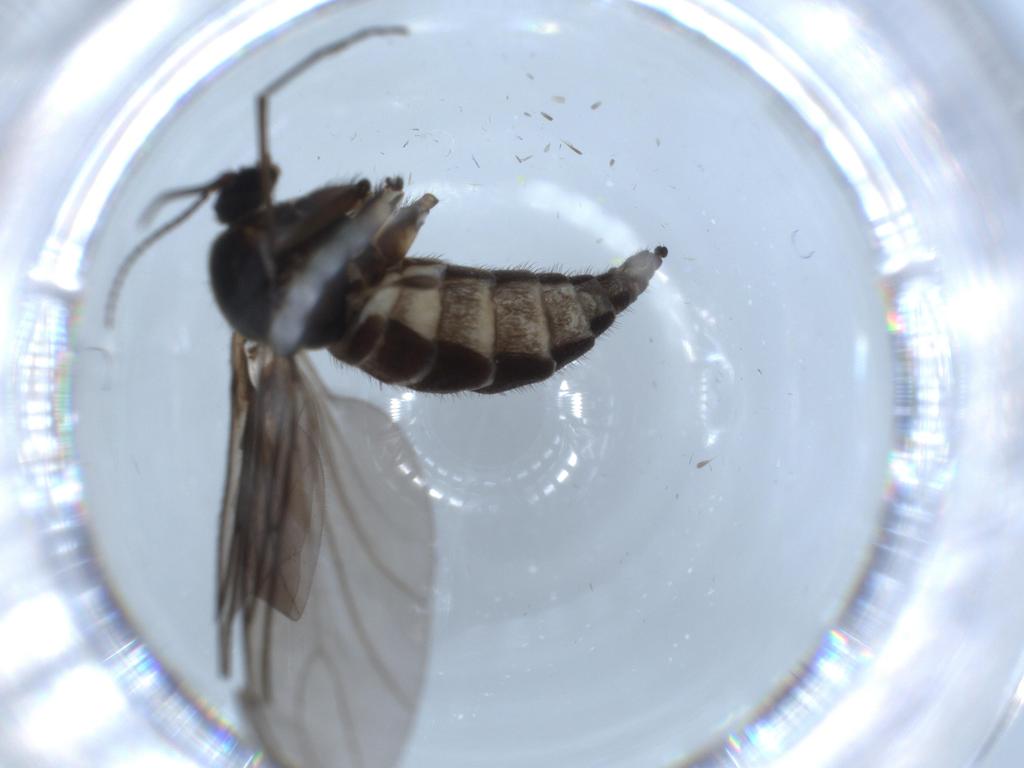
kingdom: Animalia
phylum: Arthropoda
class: Insecta
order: Diptera
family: Sciaridae
